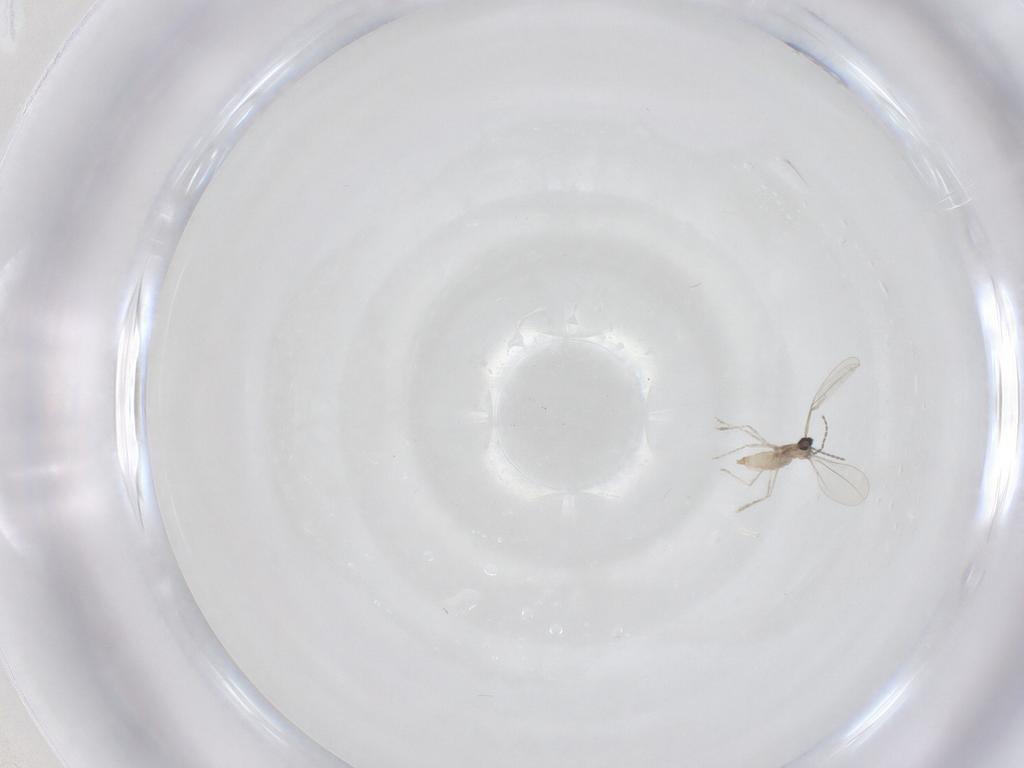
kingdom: Animalia
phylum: Arthropoda
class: Insecta
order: Diptera
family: Cecidomyiidae
